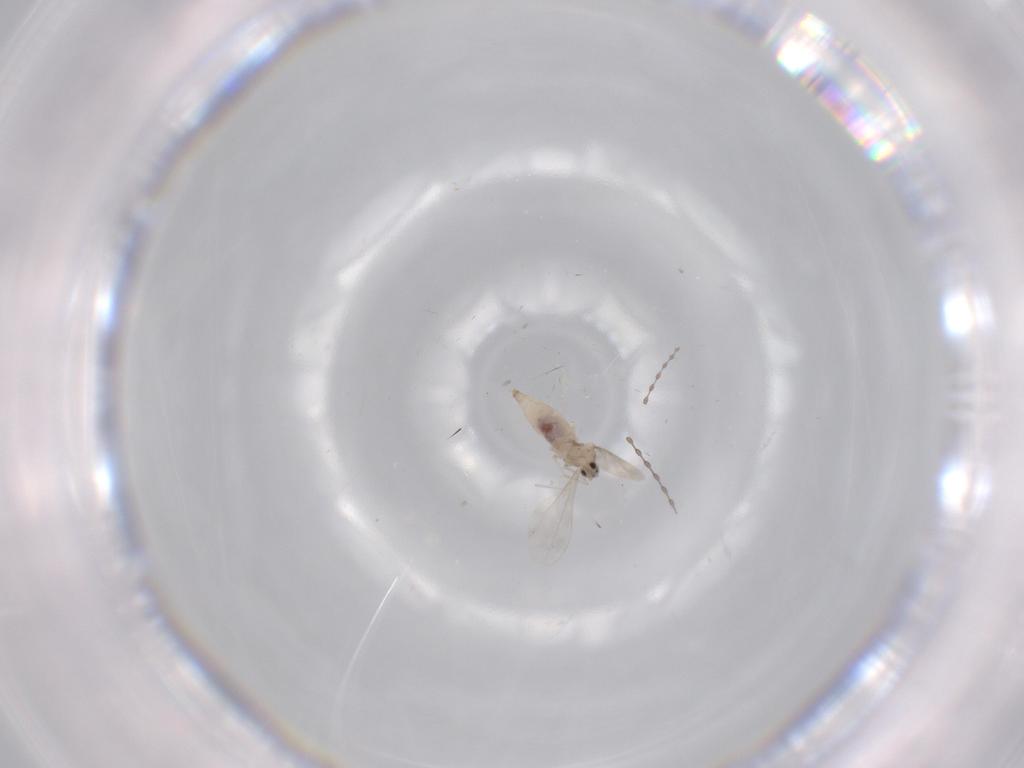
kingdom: Animalia
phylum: Arthropoda
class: Insecta
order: Diptera
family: Cecidomyiidae
